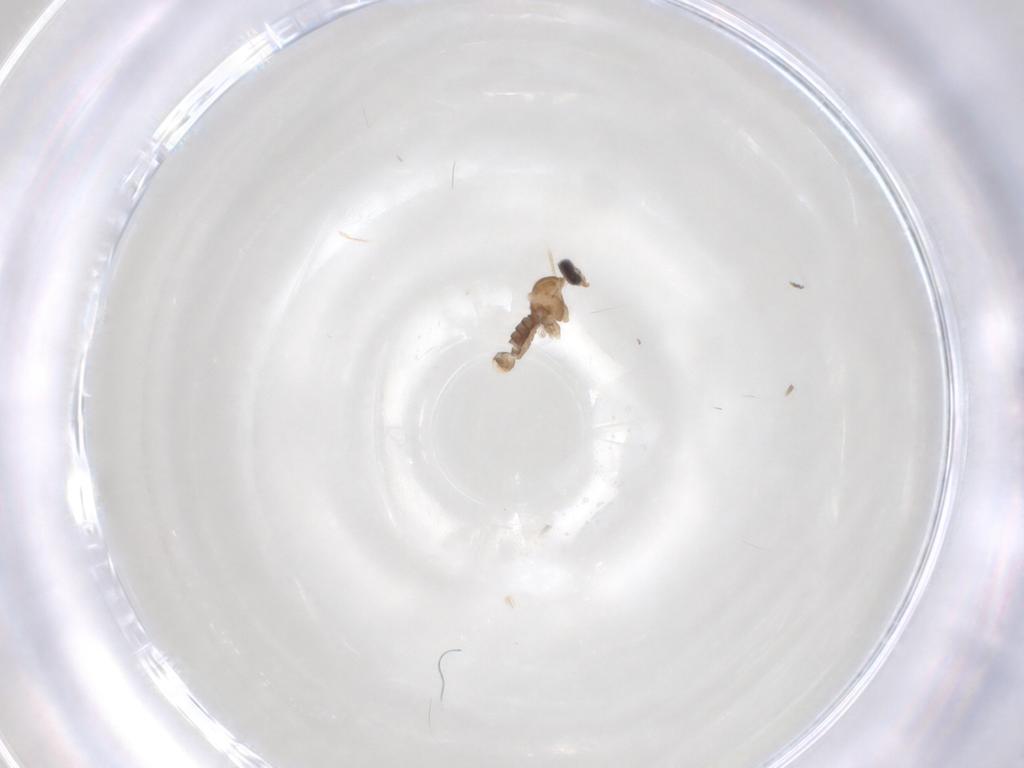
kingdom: Animalia
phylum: Arthropoda
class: Insecta
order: Diptera
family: Cecidomyiidae
